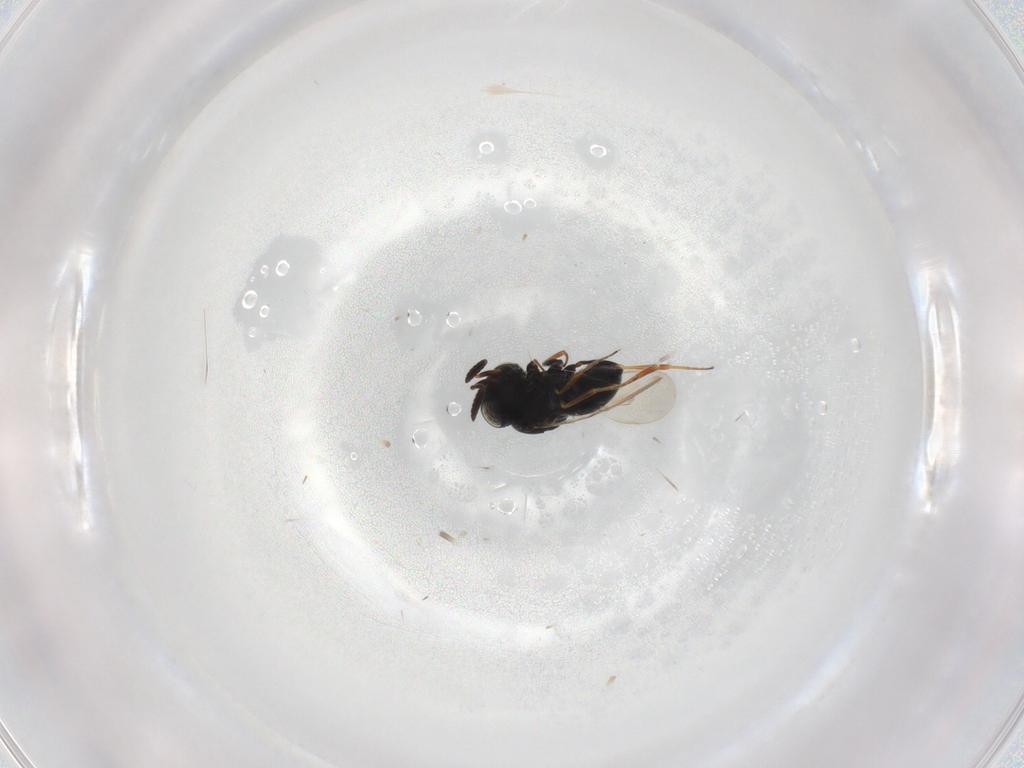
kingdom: Animalia
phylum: Arthropoda
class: Insecta
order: Hymenoptera
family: Scelionidae
